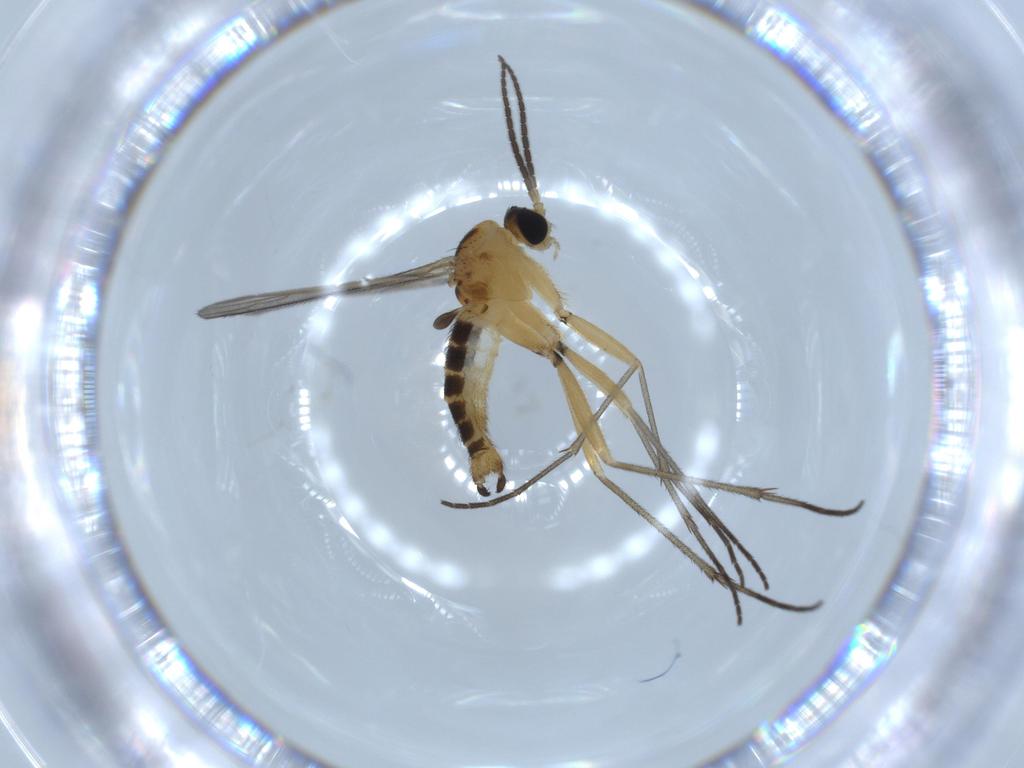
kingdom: Animalia
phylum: Arthropoda
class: Insecta
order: Diptera
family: Sciaridae
